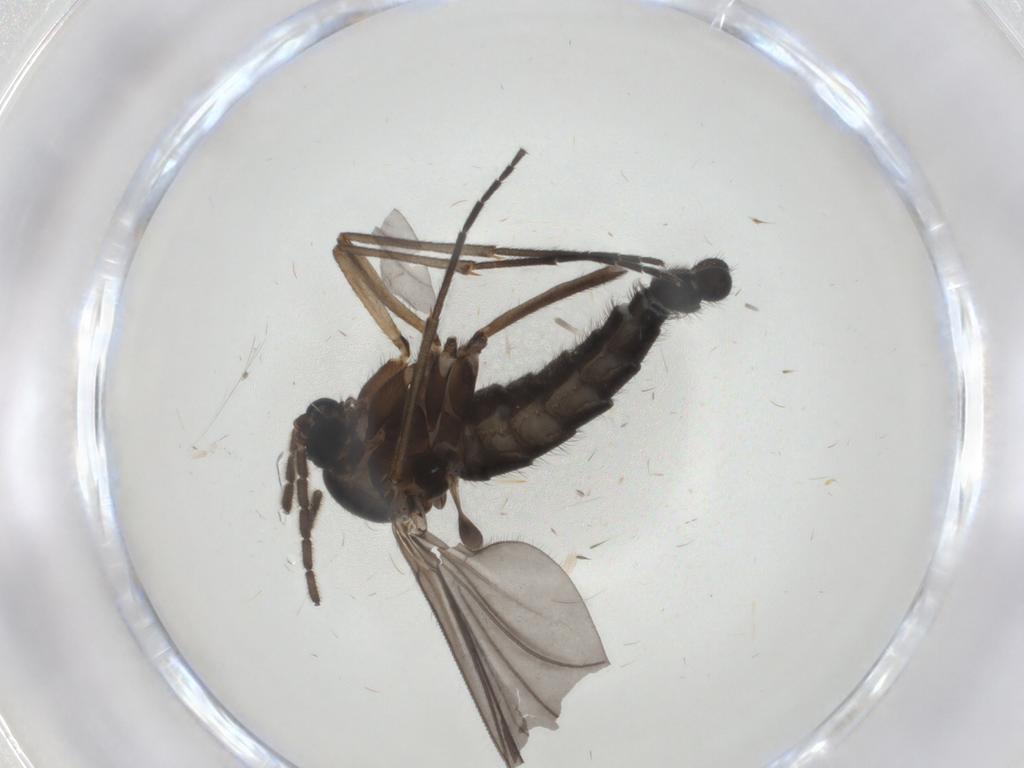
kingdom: Animalia
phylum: Arthropoda
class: Insecta
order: Diptera
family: Sciaridae
